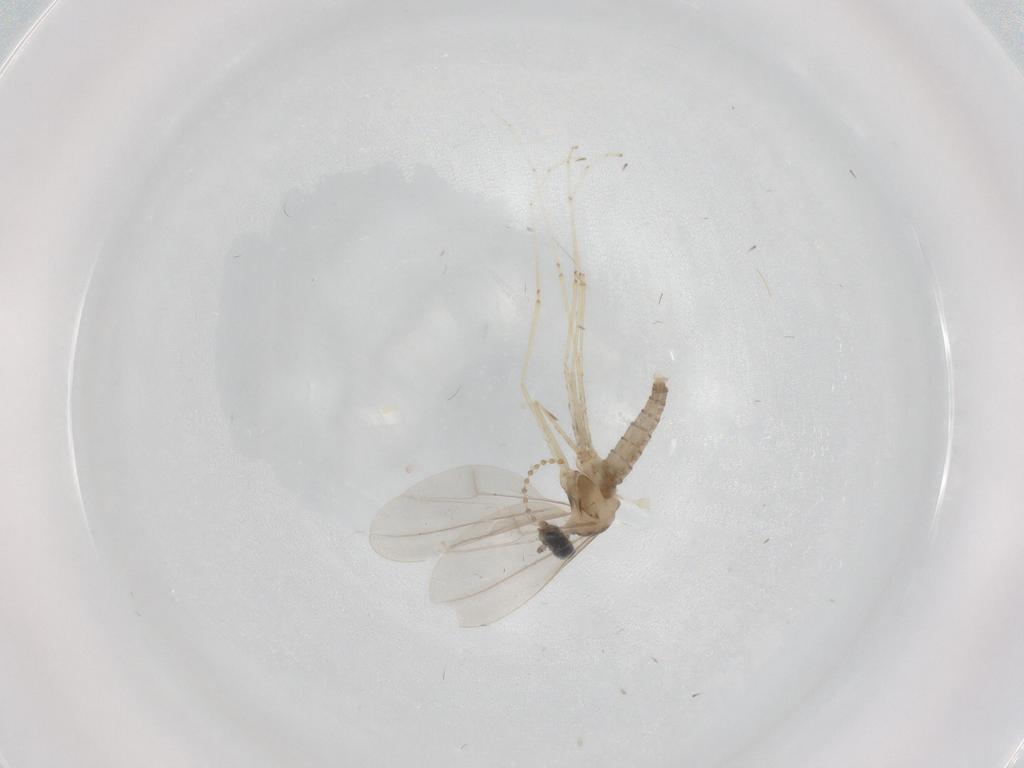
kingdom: Animalia
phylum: Arthropoda
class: Insecta
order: Diptera
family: Cecidomyiidae
